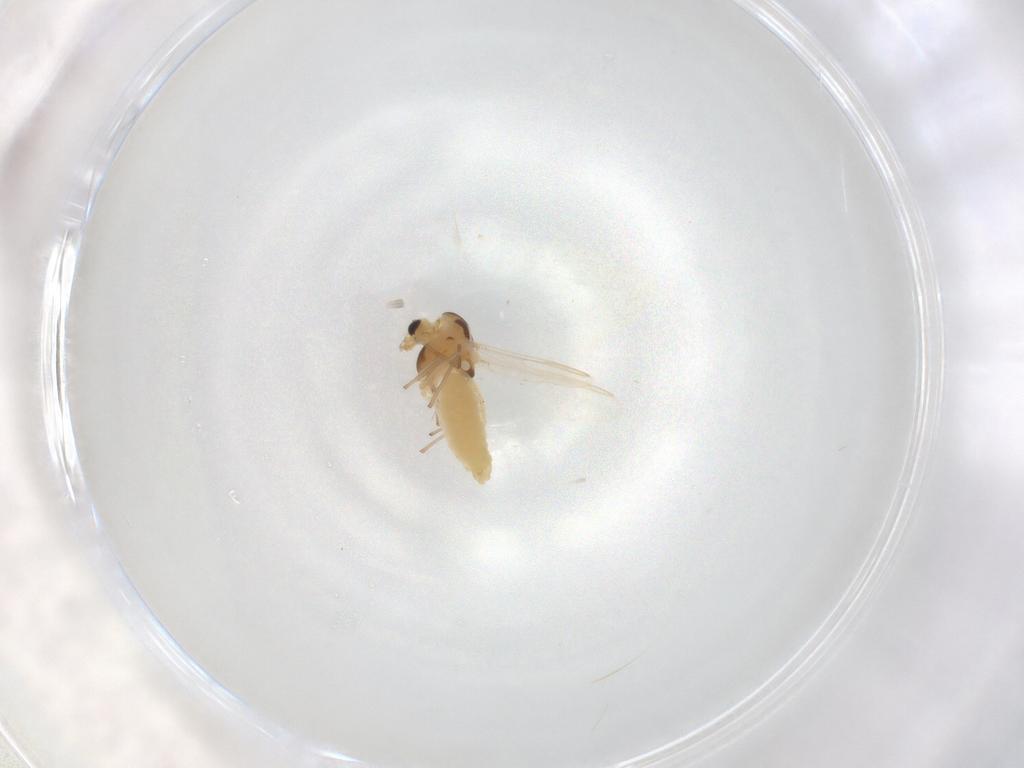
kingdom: Animalia
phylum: Arthropoda
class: Insecta
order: Diptera
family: Chironomidae
